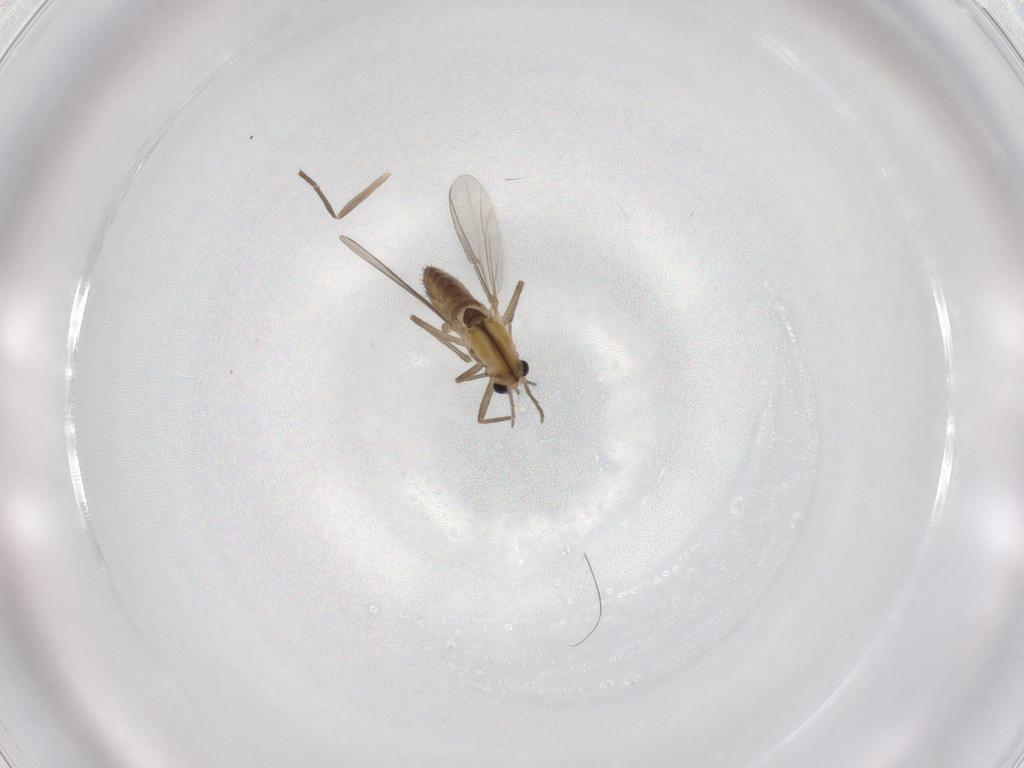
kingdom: Animalia
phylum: Arthropoda
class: Insecta
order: Diptera
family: Chironomidae
